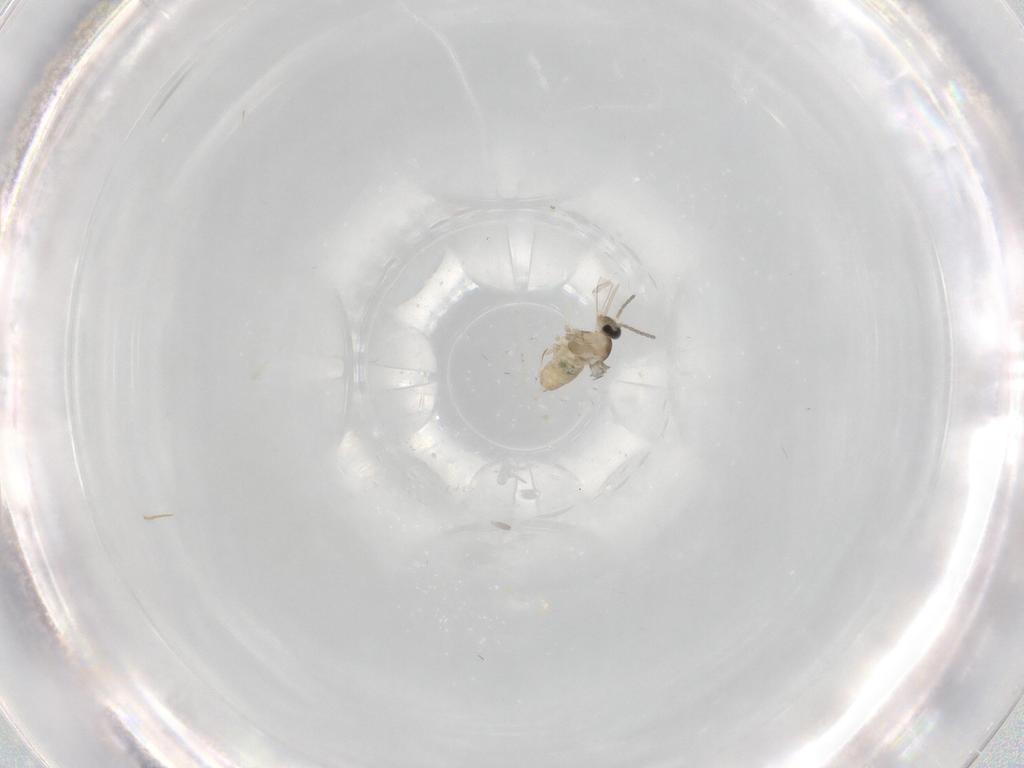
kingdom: Animalia
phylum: Arthropoda
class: Insecta
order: Diptera
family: Cecidomyiidae
